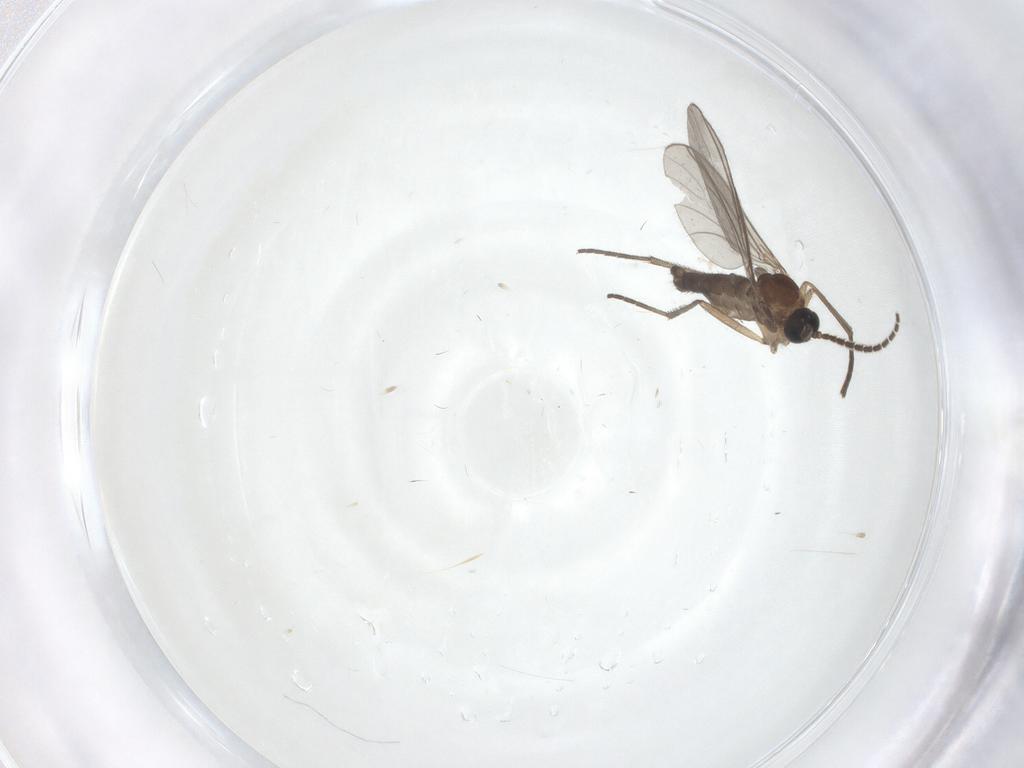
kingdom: Animalia
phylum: Arthropoda
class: Insecta
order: Diptera
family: Sciaridae
